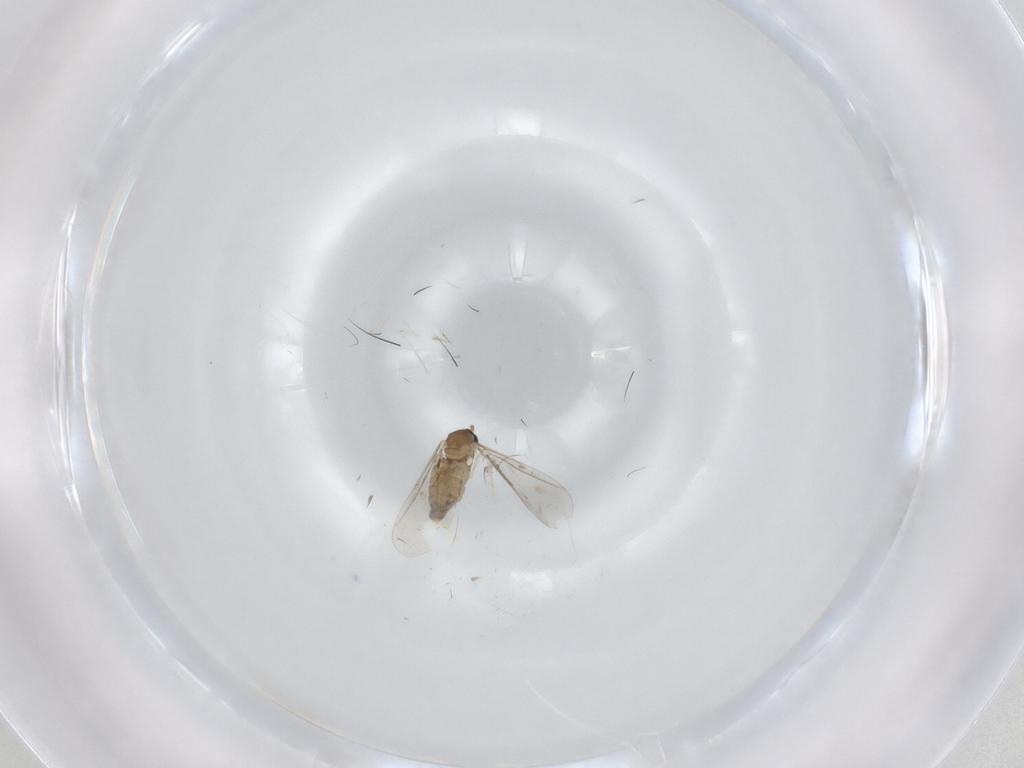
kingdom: Animalia
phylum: Arthropoda
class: Insecta
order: Diptera
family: Cecidomyiidae
